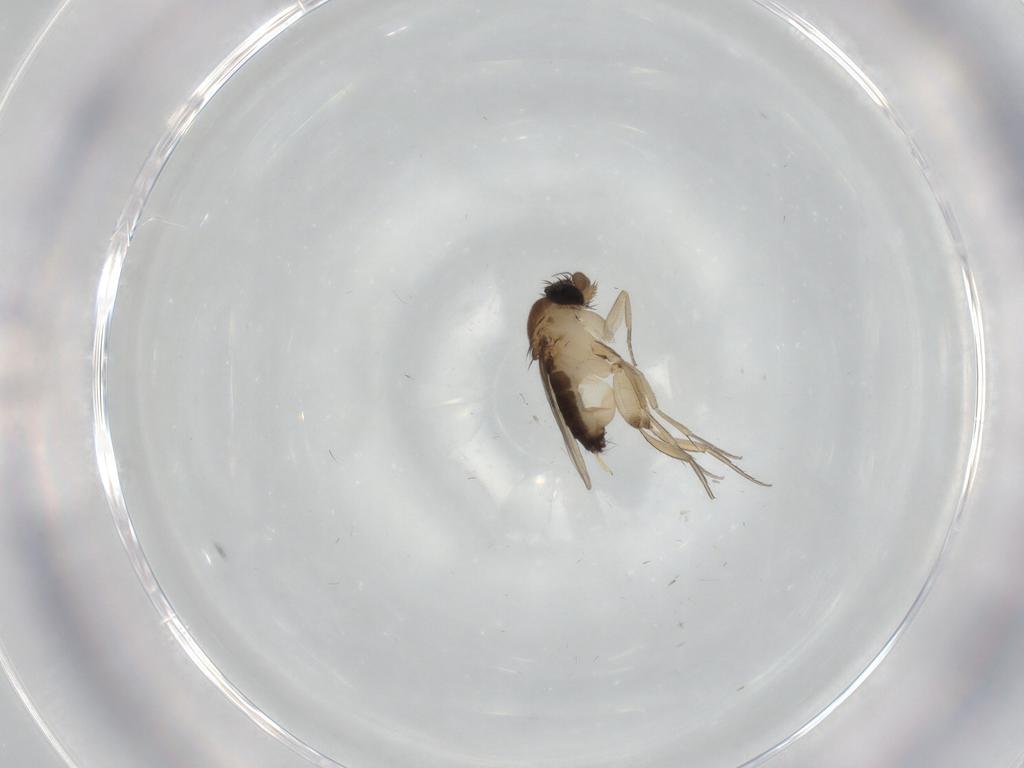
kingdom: Animalia
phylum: Arthropoda
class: Insecta
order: Diptera
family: Phoridae
